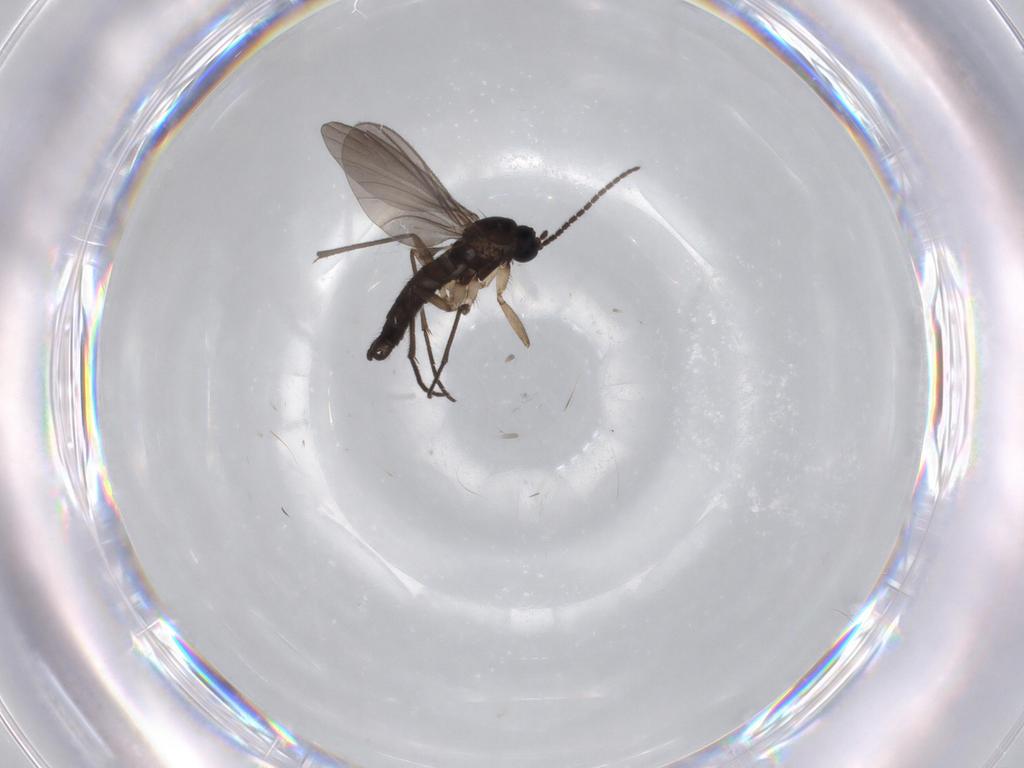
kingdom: Animalia
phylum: Arthropoda
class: Insecta
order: Diptera
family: Sciaridae
